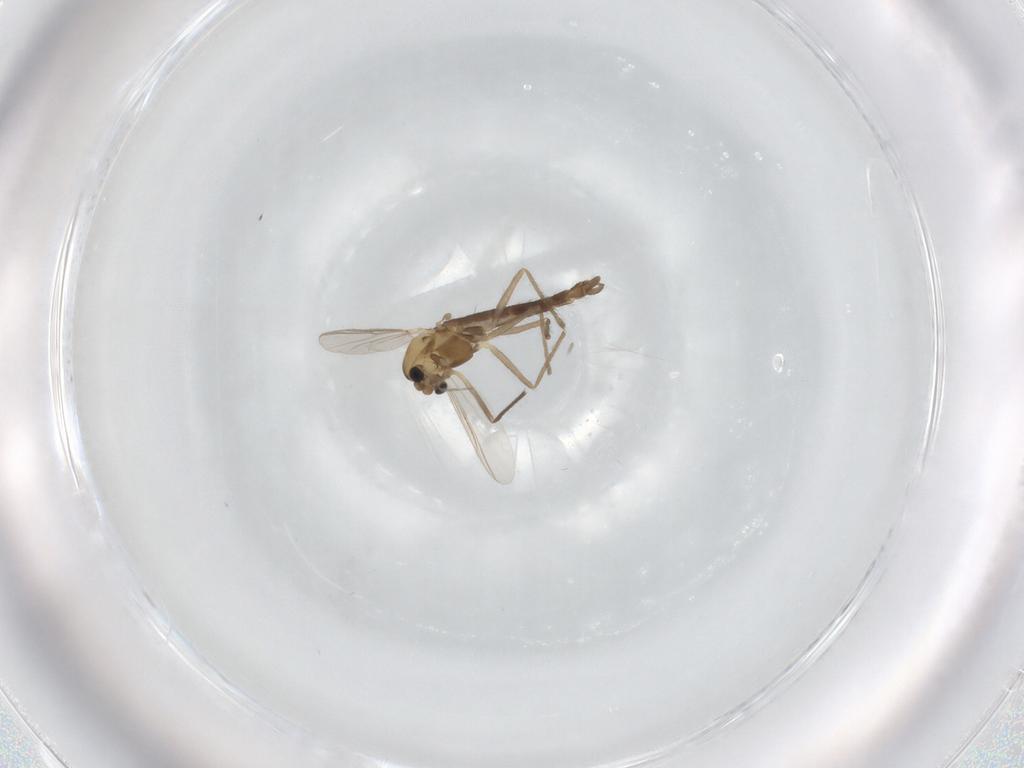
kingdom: Animalia
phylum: Arthropoda
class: Insecta
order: Diptera
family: Chironomidae
